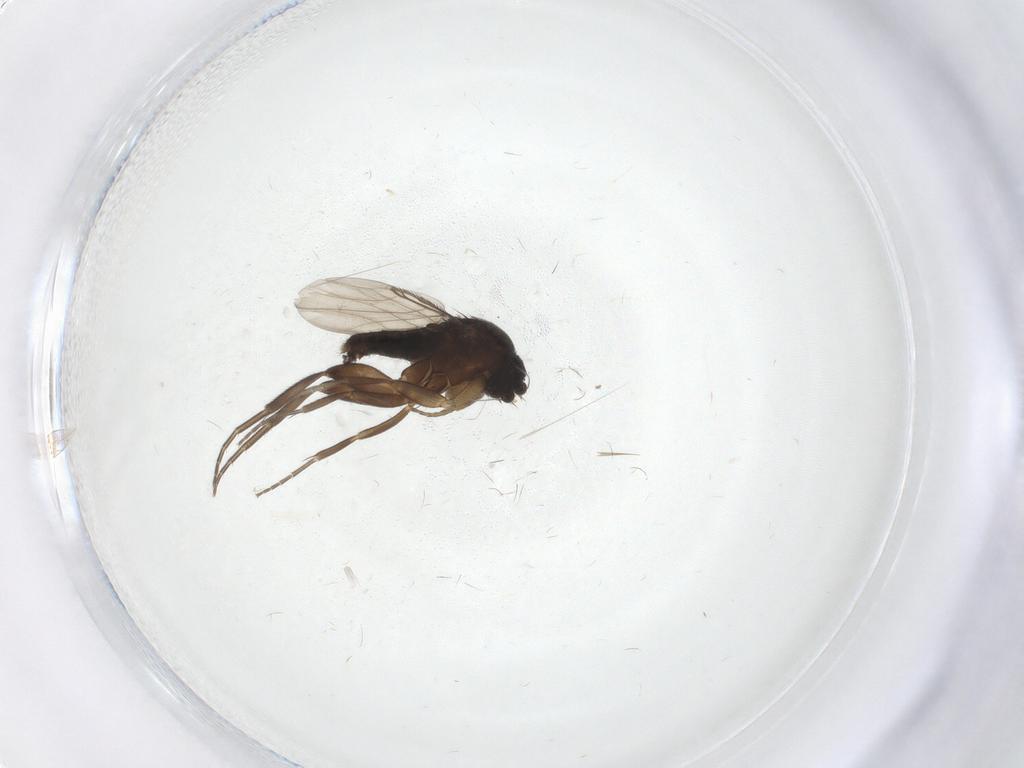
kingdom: Animalia
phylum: Arthropoda
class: Insecta
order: Diptera
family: Phoridae
